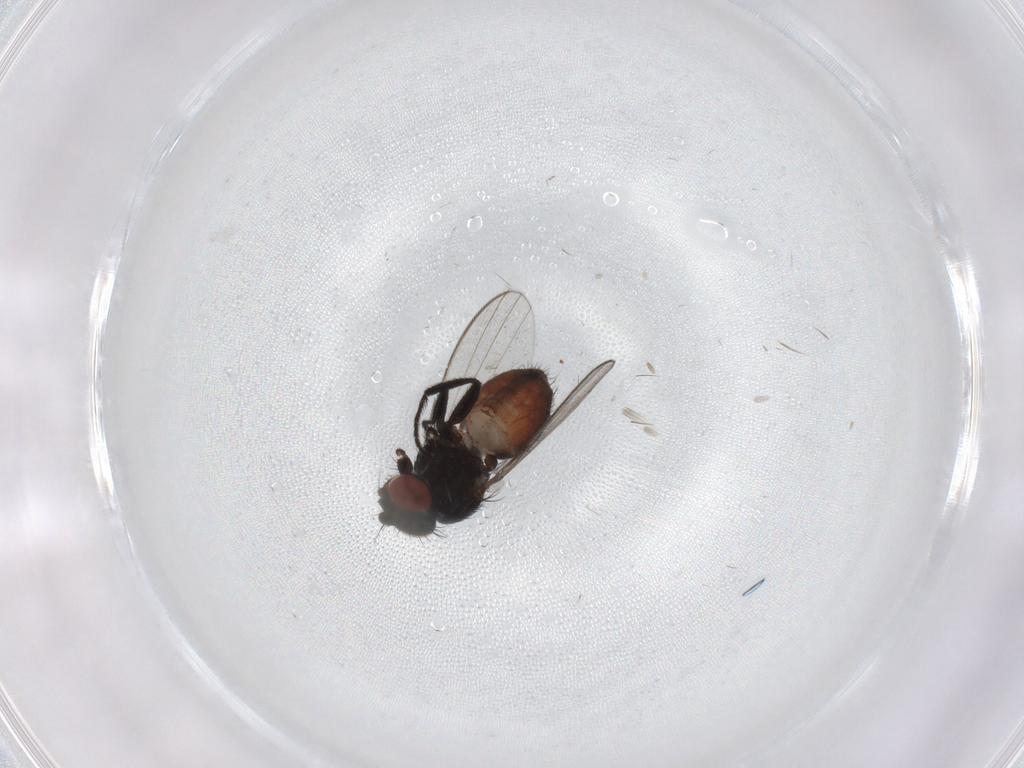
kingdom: Animalia
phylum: Arthropoda
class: Insecta
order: Diptera
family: Milichiidae
